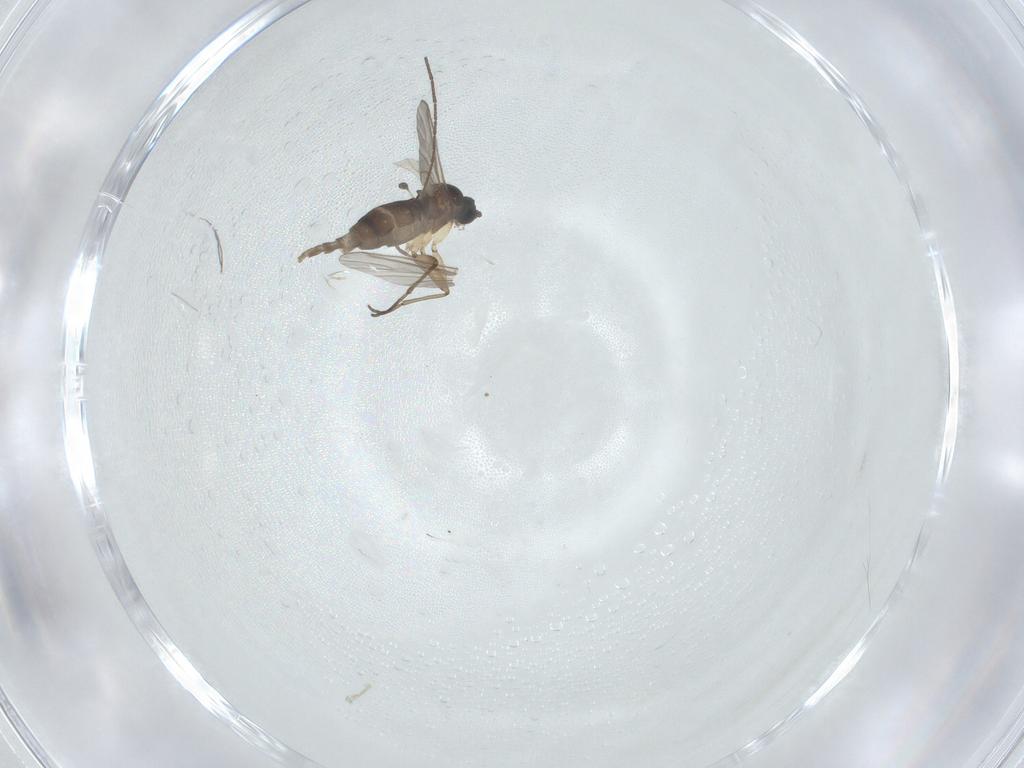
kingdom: Animalia
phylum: Arthropoda
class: Insecta
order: Diptera
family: Sciaridae
